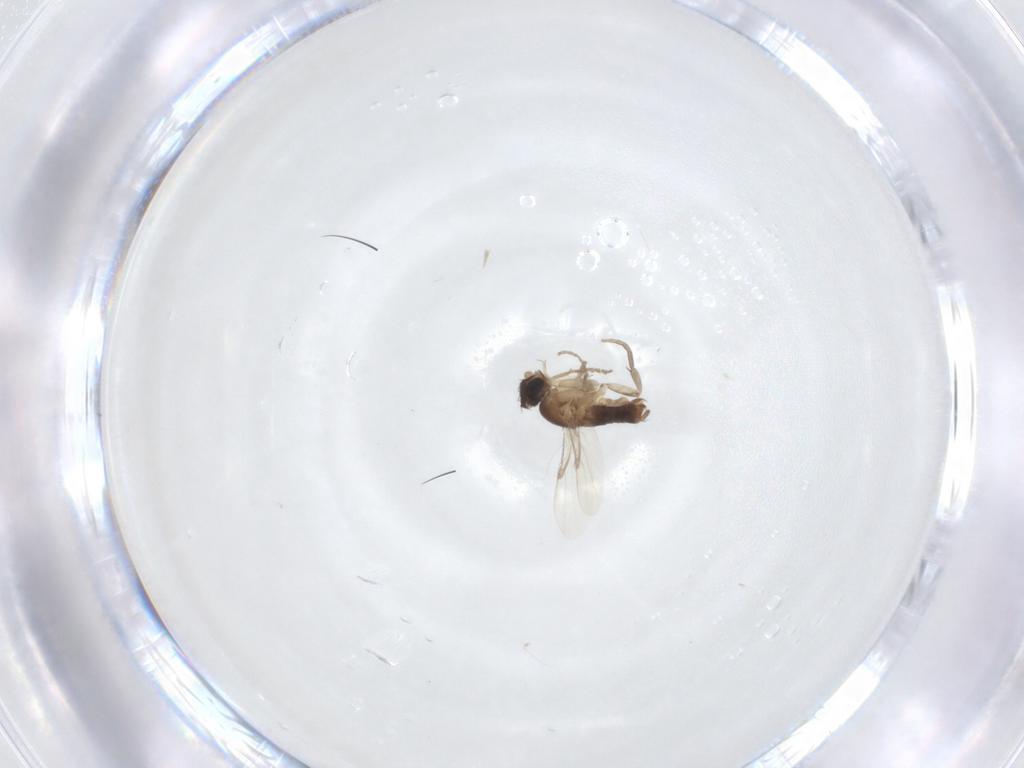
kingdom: Animalia
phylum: Arthropoda
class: Insecta
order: Diptera
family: Phoridae
